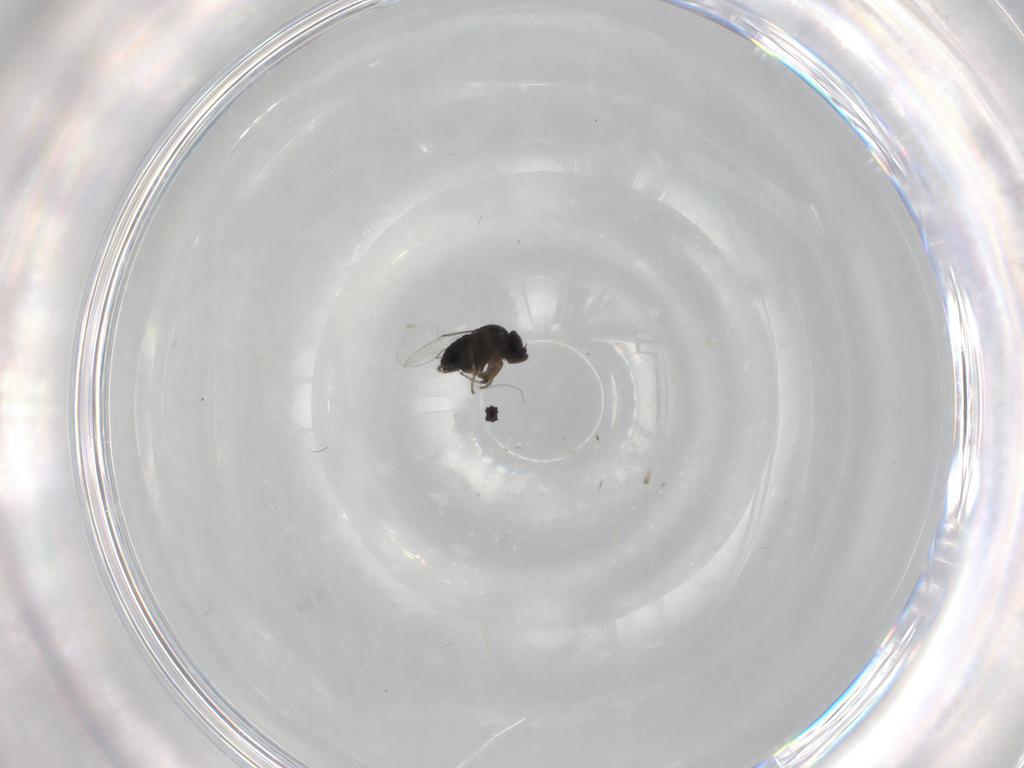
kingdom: Animalia
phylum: Arthropoda
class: Insecta
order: Diptera
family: Phoridae
